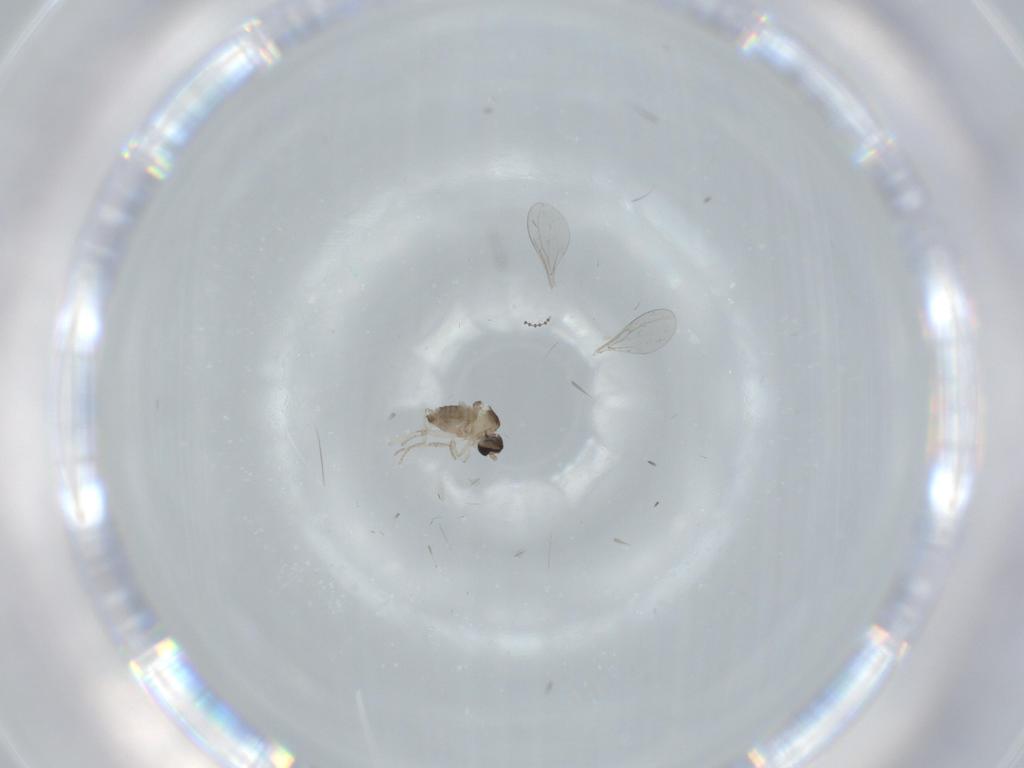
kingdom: Animalia
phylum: Arthropoda
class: Insecta
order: Diptera
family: Cecidomyiidae
